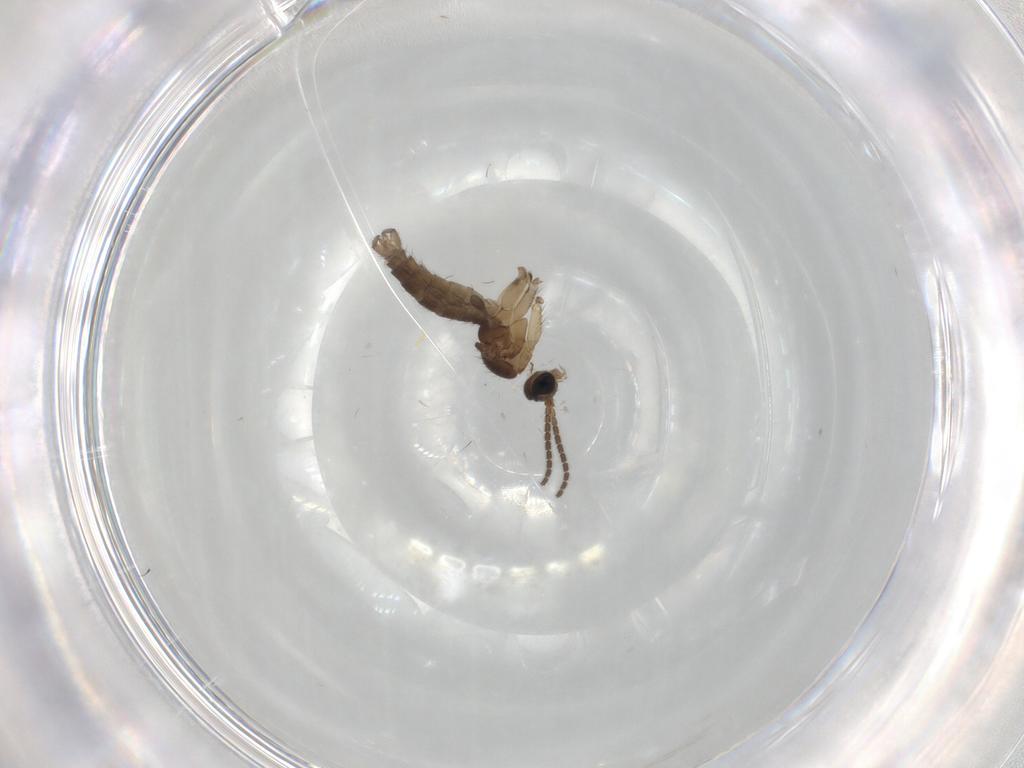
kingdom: Animalia
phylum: Arthropoda
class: Insecta
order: Diptera
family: Sciaridae
